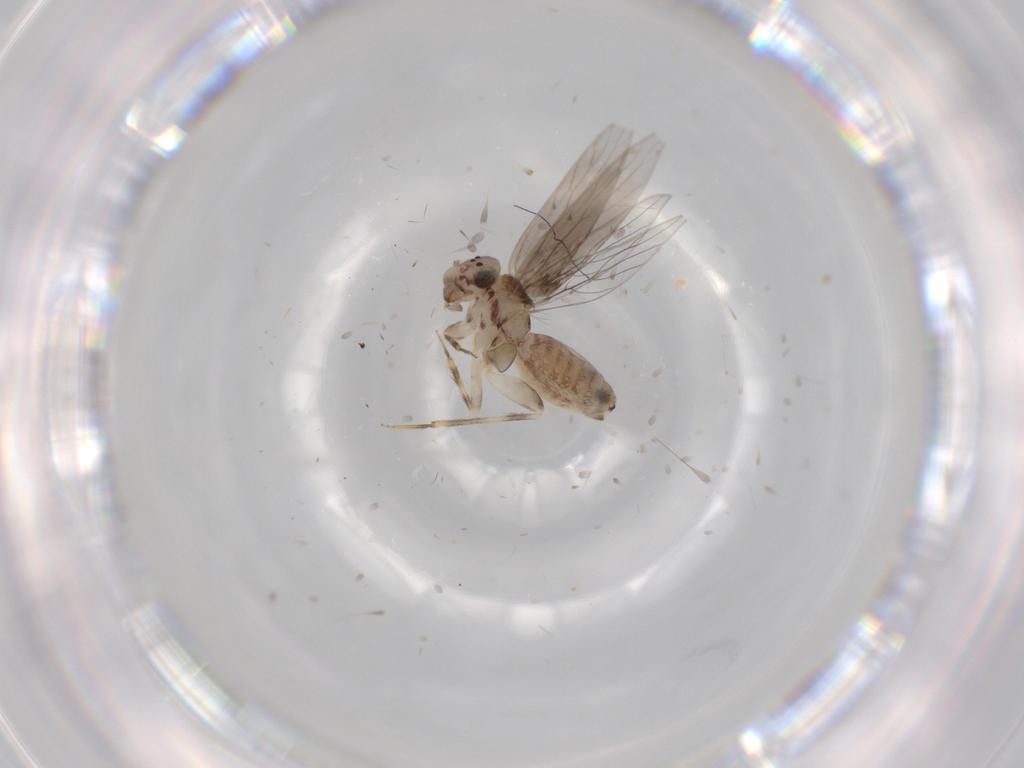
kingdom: Animalia
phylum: Arthropoda
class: Insecta
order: Psocodea
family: Lepidopsocidae
